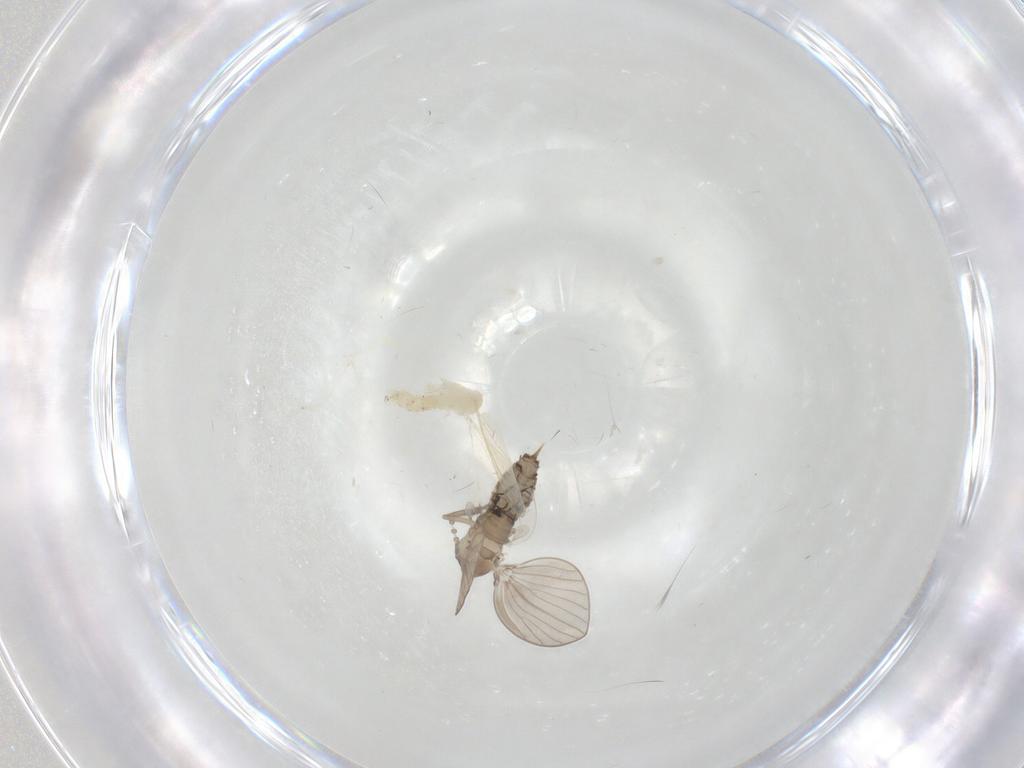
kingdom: Animalia
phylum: Arthropoda
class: Insecta
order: Diptera
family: Cecidomyiidae
